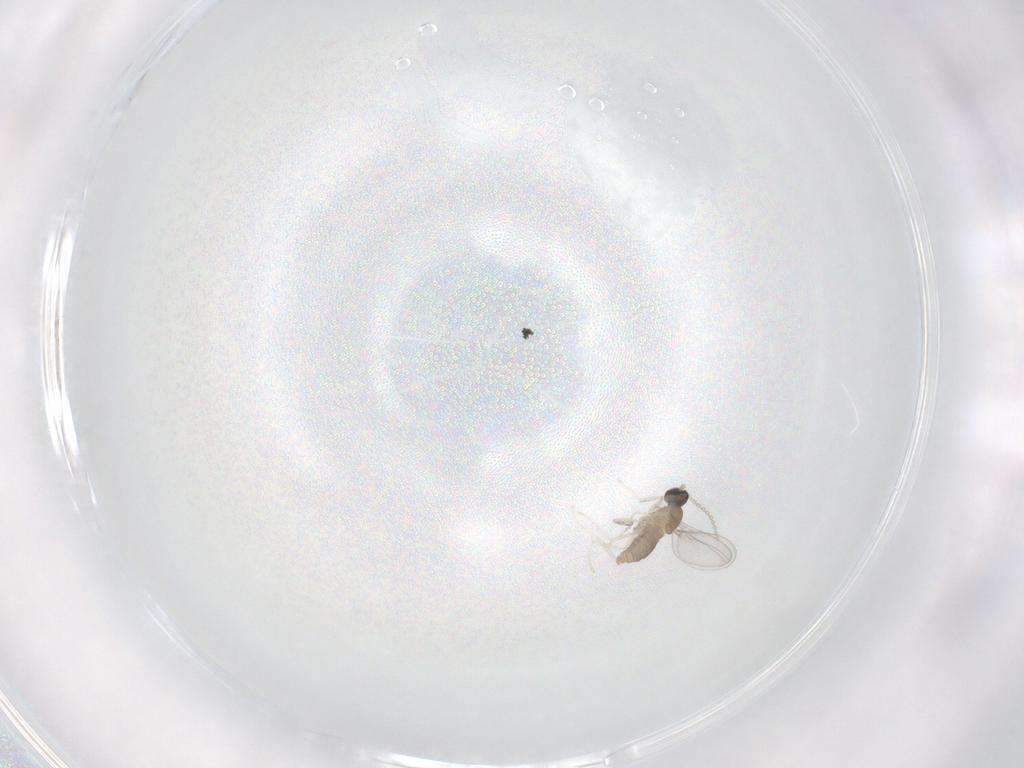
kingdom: Animalia
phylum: Arthropoda
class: Insecta
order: Diptera
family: Cecidomyiidae
